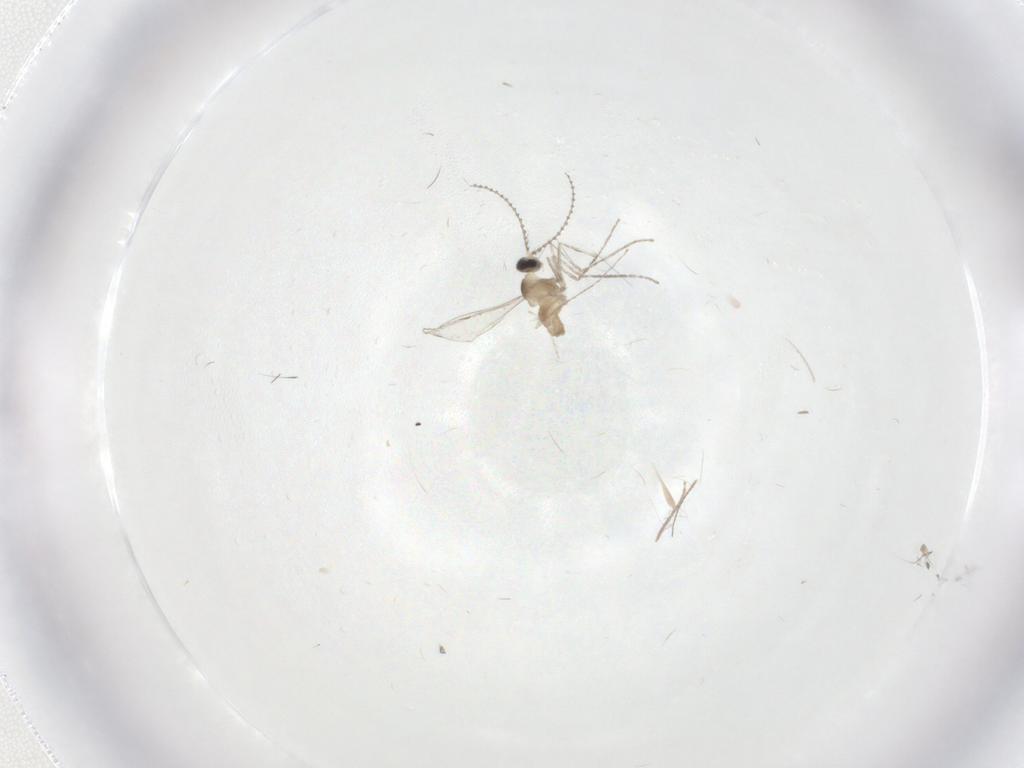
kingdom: Animalia
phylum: Arthropoda
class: Insecta
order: Diptera
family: Cecidomyiidae
